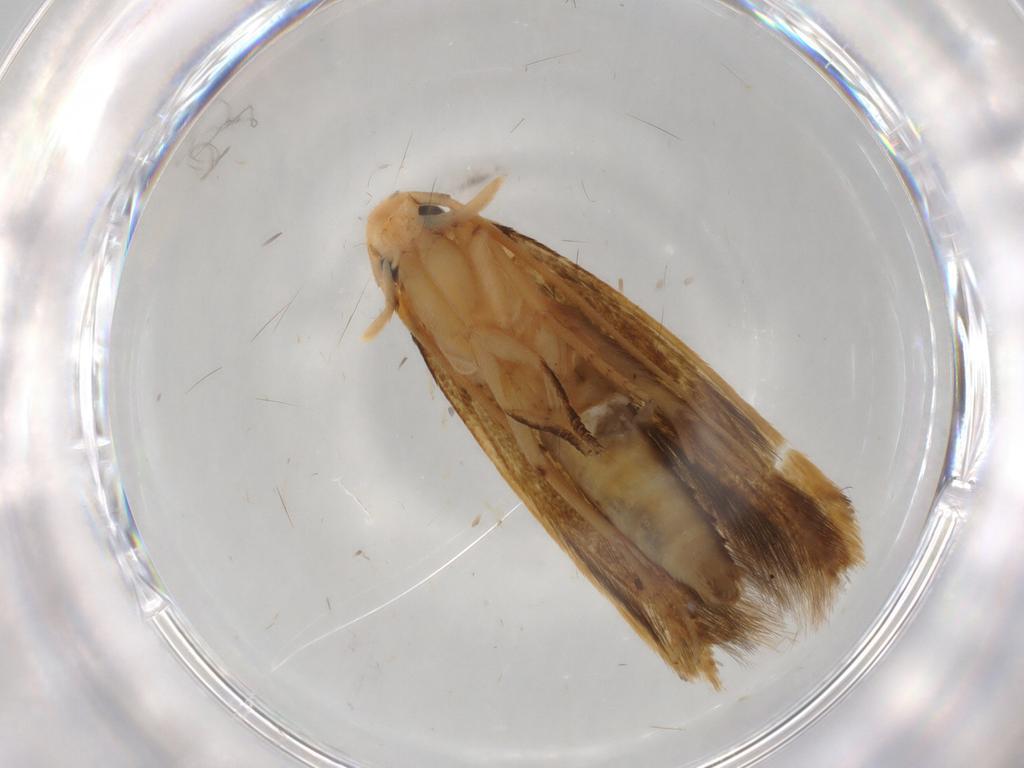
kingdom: Animalia
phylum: Arthropoda
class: Insecta
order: Lepidoptera
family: Tineidae
